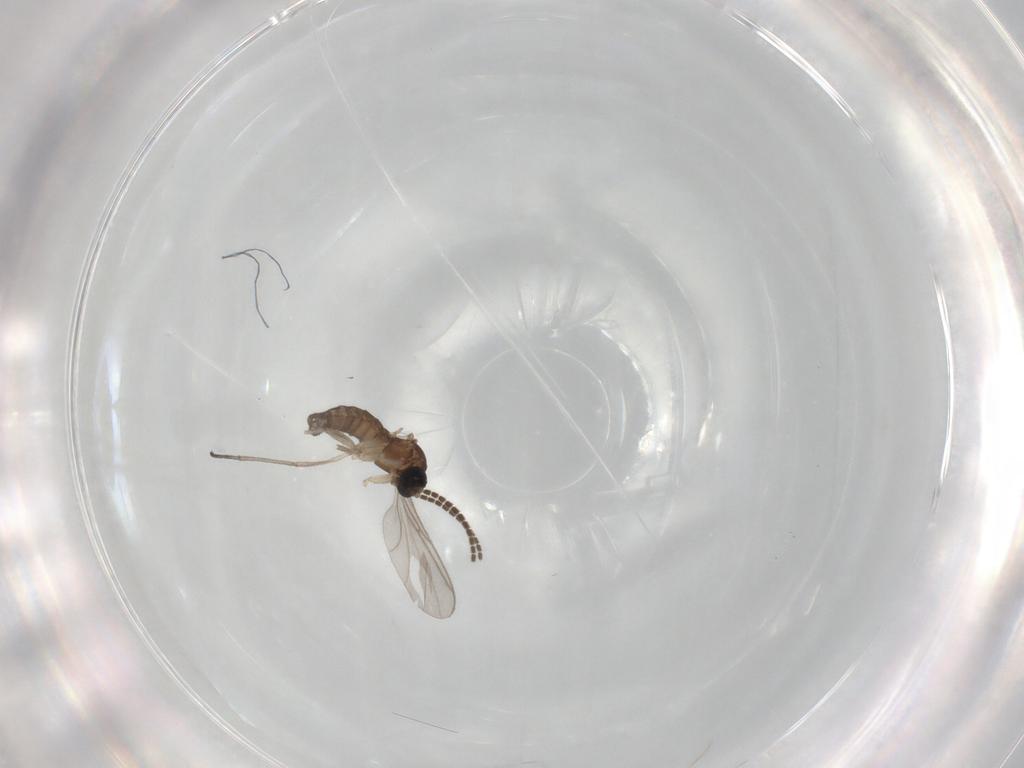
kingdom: Animalia
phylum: Arthropoda
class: Insecta
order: Diptera
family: Sciaridae
